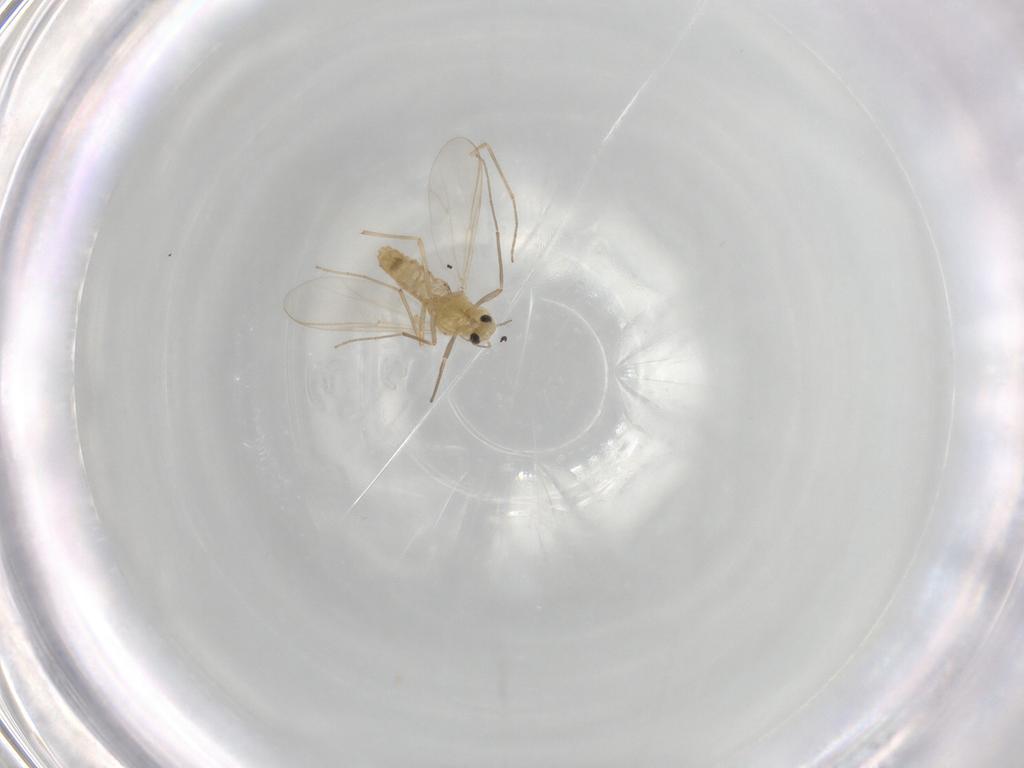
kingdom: Animalia
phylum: Arthropoda
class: Insecta
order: Diptera
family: Chironomidae
